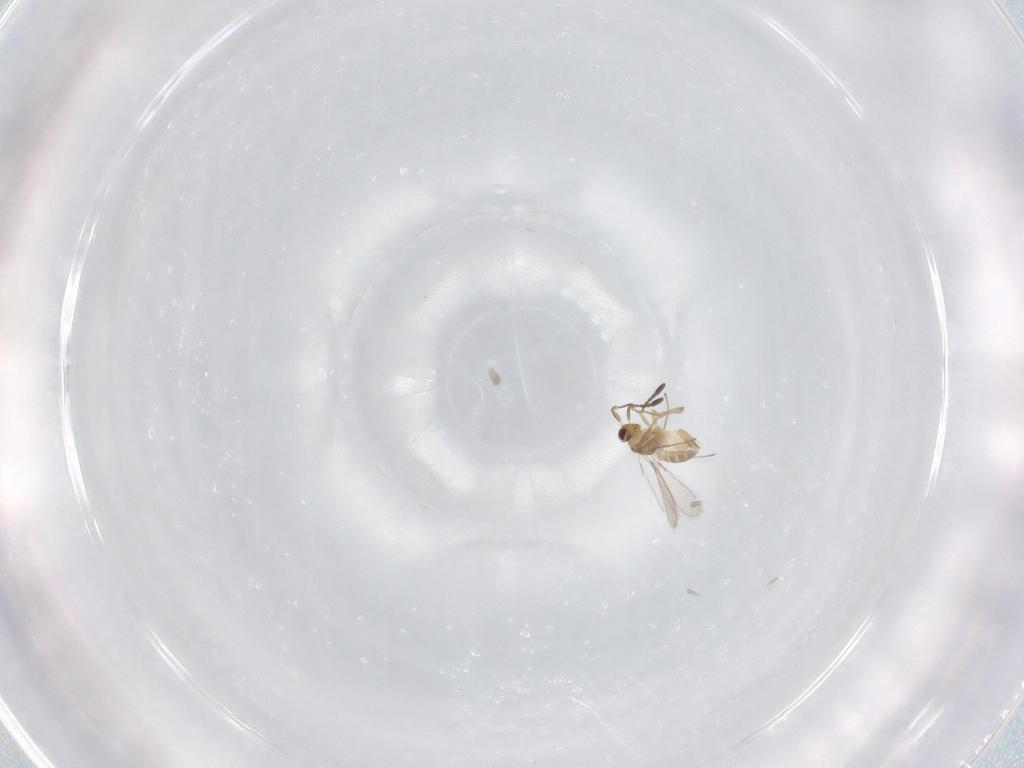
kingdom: Animalia
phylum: Arthropoda
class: Insecta
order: Hymenoptera
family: Mymaridae
